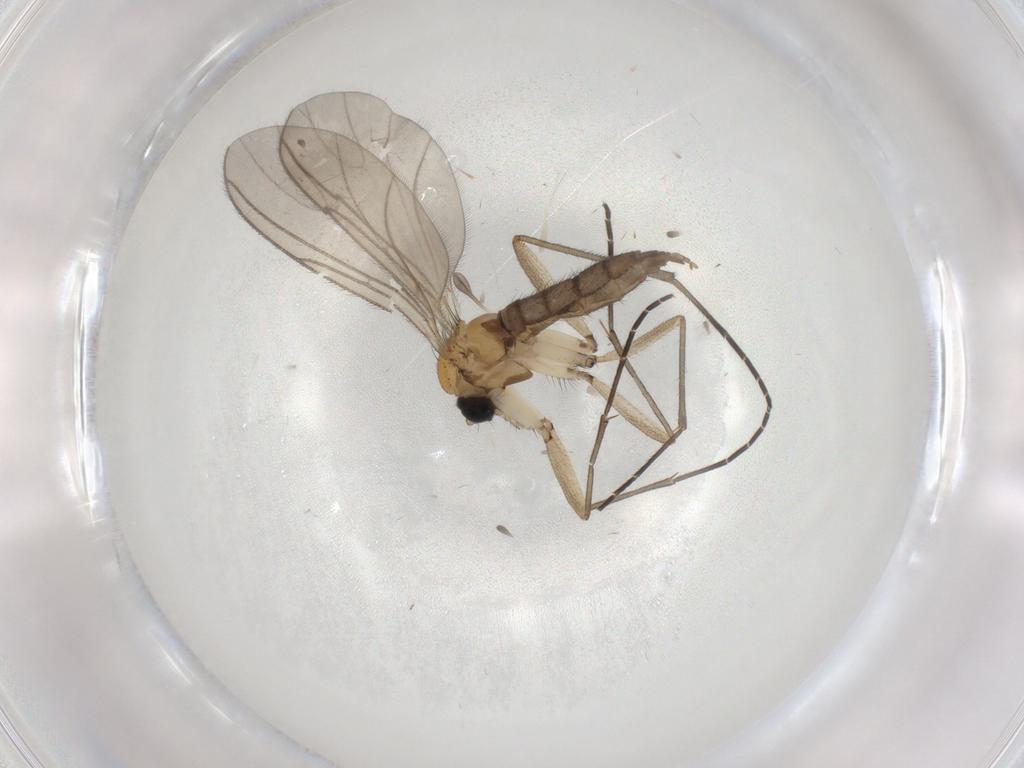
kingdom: Animalia
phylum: Arthropoda
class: Insecta
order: Diptera
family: Sciaridae
